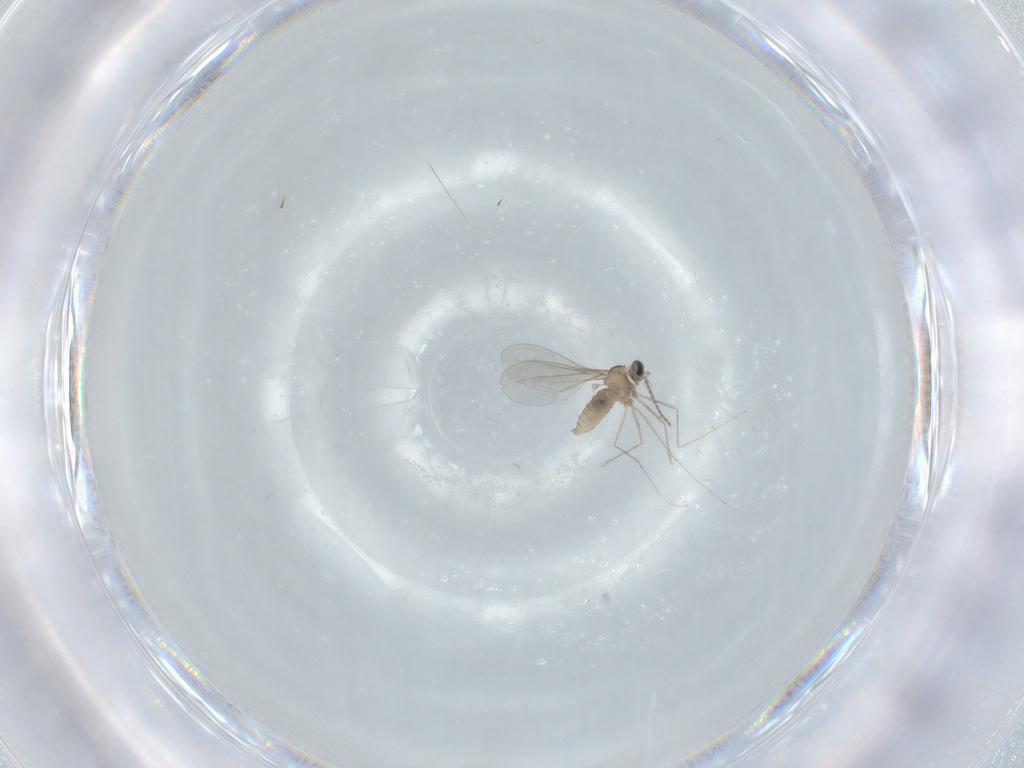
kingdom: Animalia
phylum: Arthropoda
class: Insecta
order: Diptera
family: Cecidomyiidae
